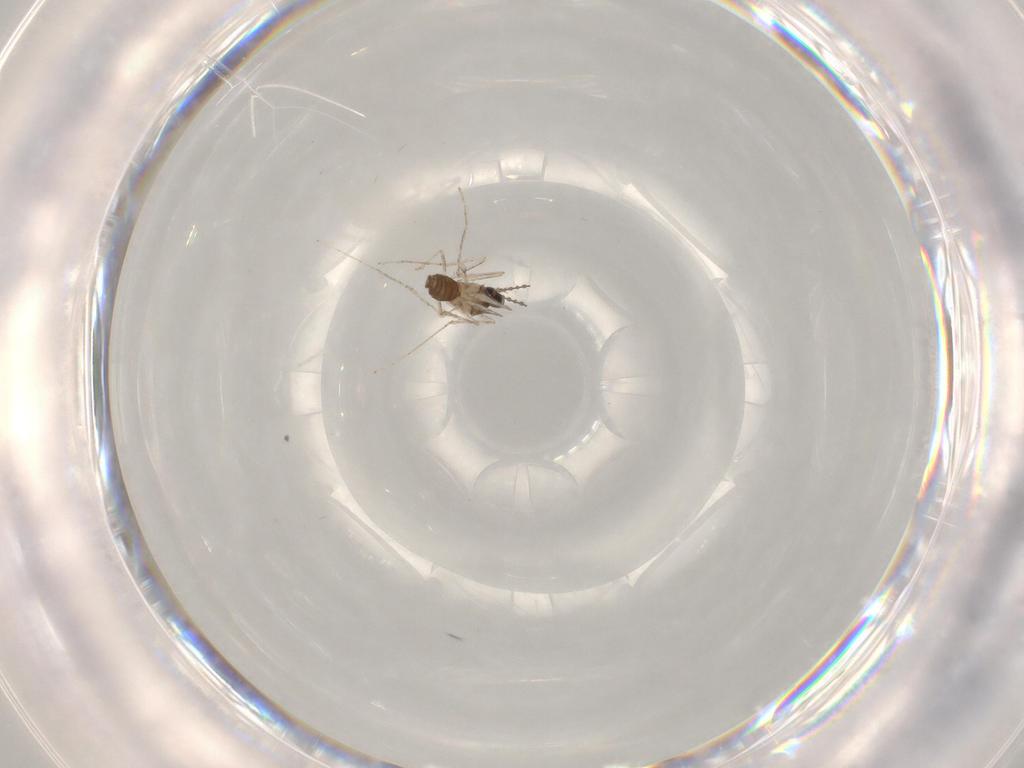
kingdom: Animalia
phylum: Arthropoda
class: Insecta
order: Diptera
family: Cecidomyiidae
